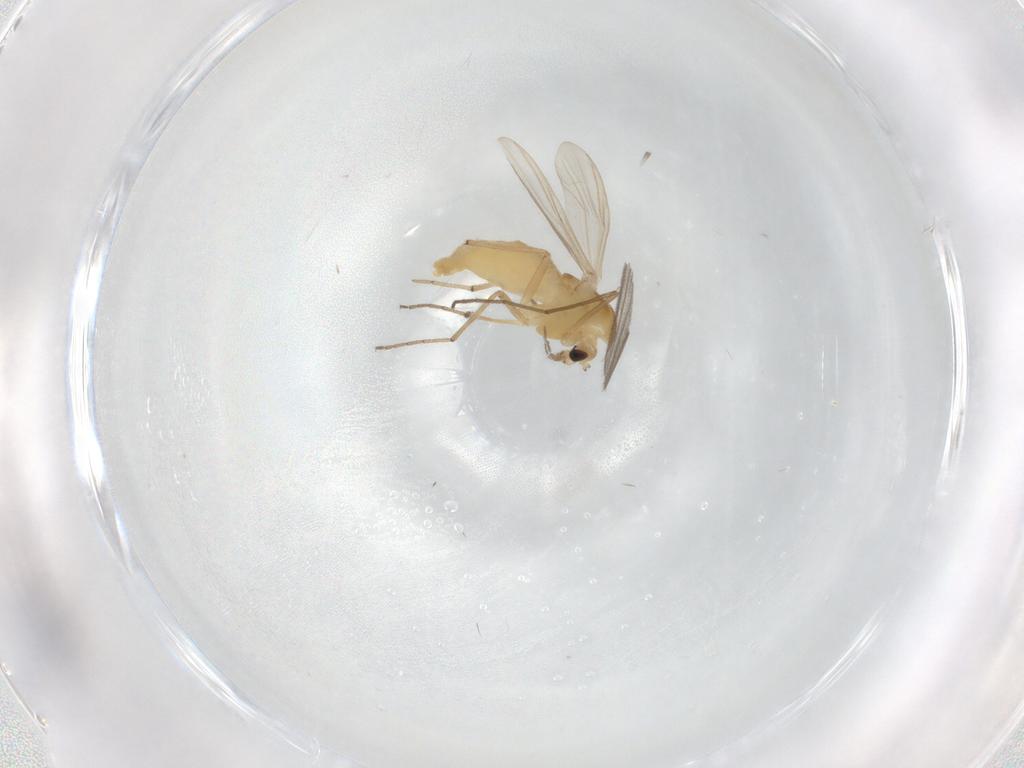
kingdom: Animalia
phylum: Arthropoda
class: Insecta
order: Diptera
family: Chironomidae
